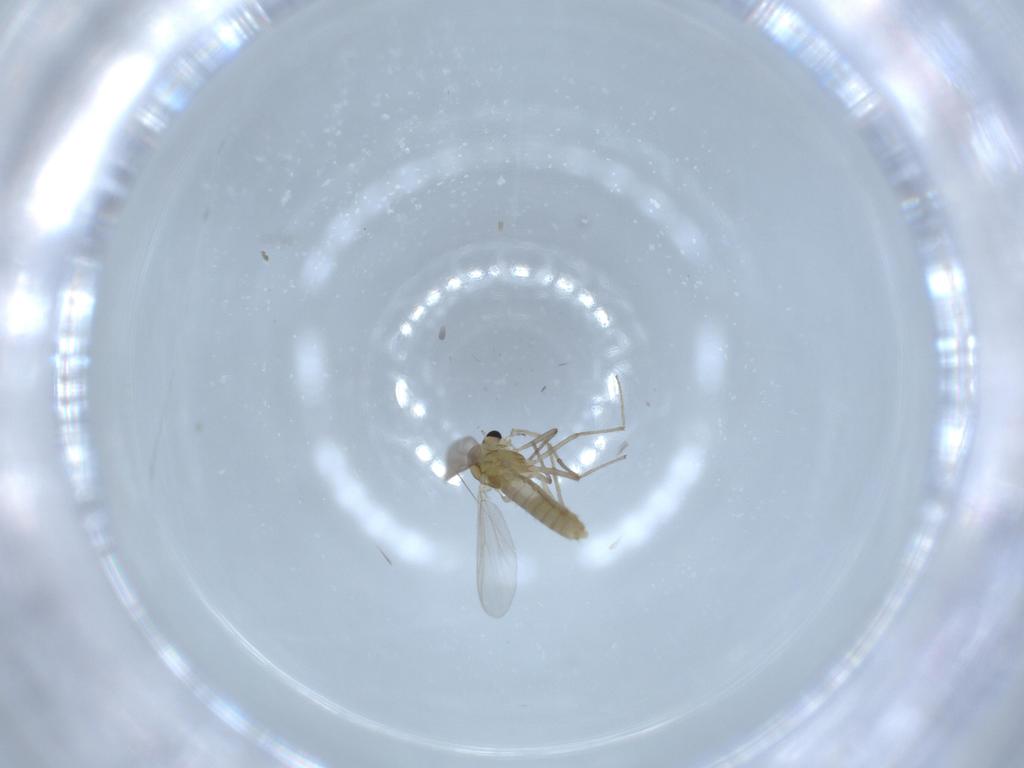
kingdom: Animalia
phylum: Arthropoda
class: Insecta
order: Diptera
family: Chironomidae
